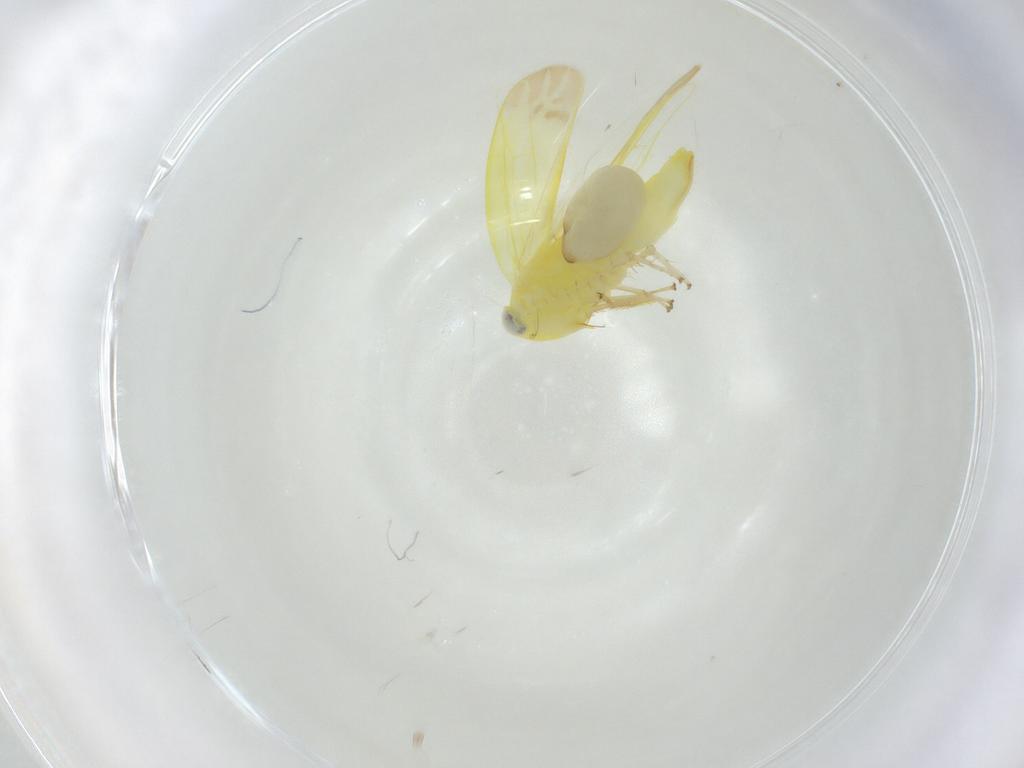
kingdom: Animalia
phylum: Arthropoda
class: Insecta
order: Hemiptera
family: Cicadellidae
